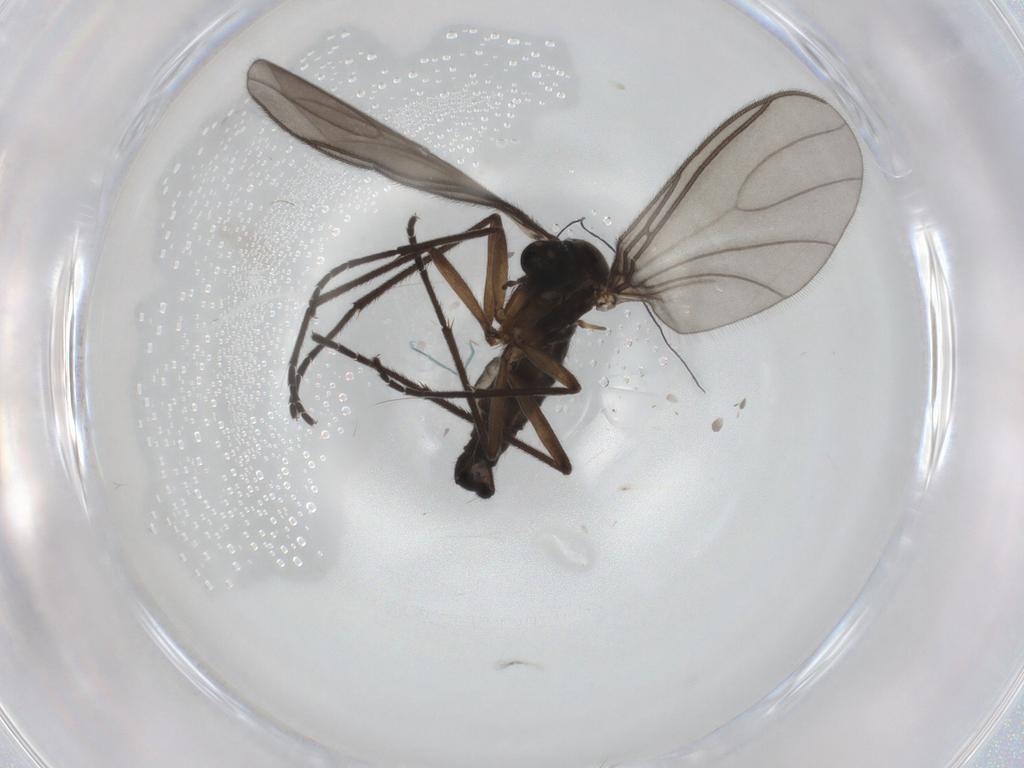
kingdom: Animalia
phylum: Arthropoda
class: Insecta
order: Diptera
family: Sciaridae
